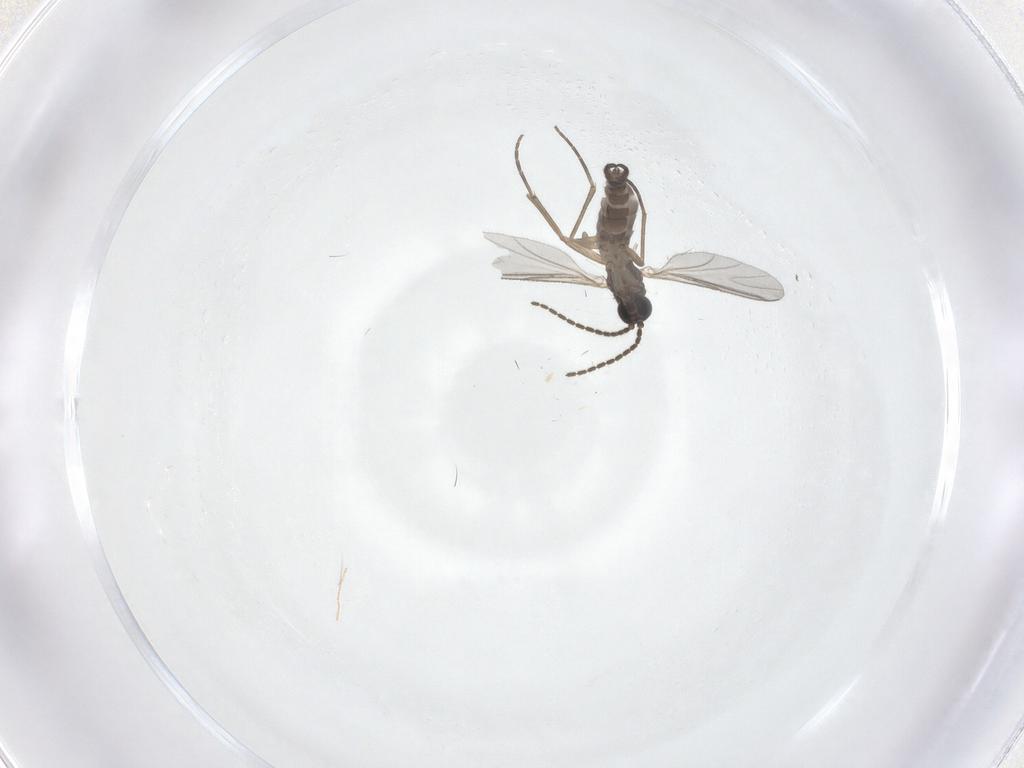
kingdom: Animalia
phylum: Arthropoda
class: Insecta
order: Diptera
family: Sciaridae
